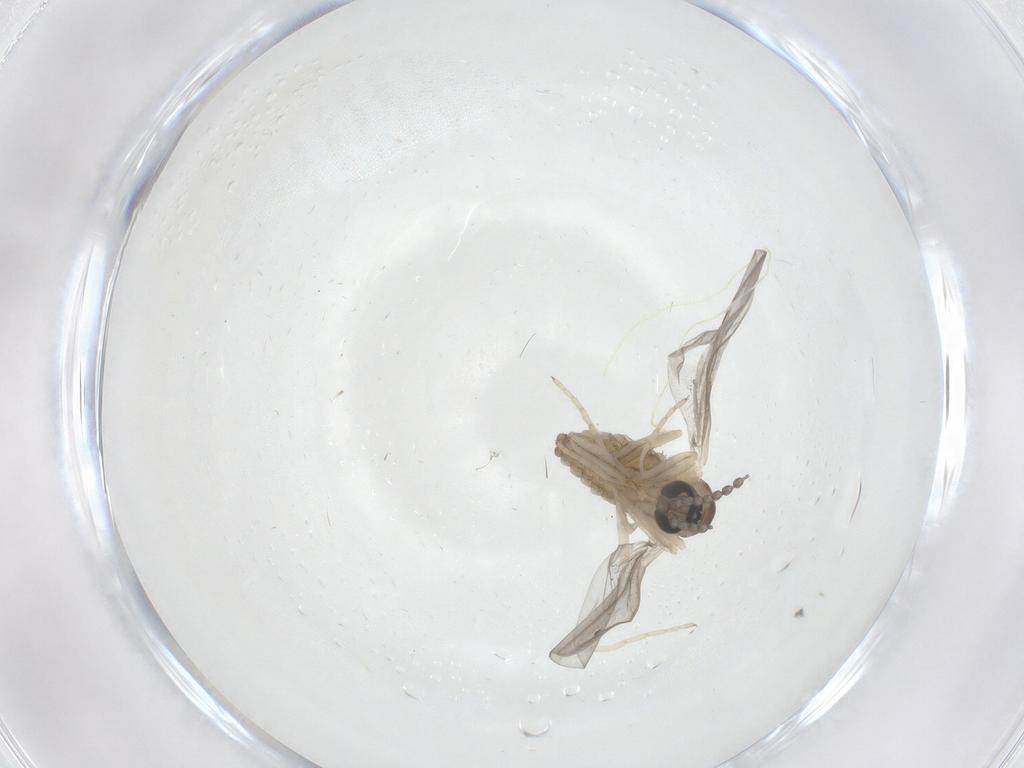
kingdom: Animalia
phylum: Arthropoda
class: Insecta
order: Diptera
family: Cecidomyiidae
